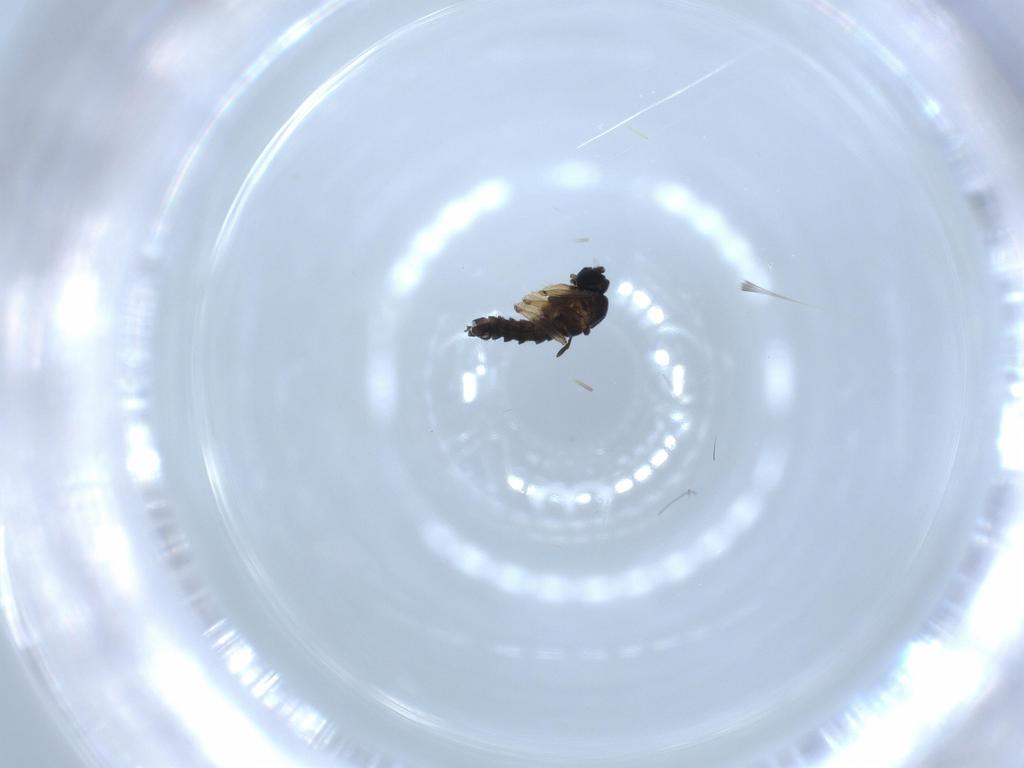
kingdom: Animalia
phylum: Arthropoda
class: Insecta
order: Diptera
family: Sciaridae
